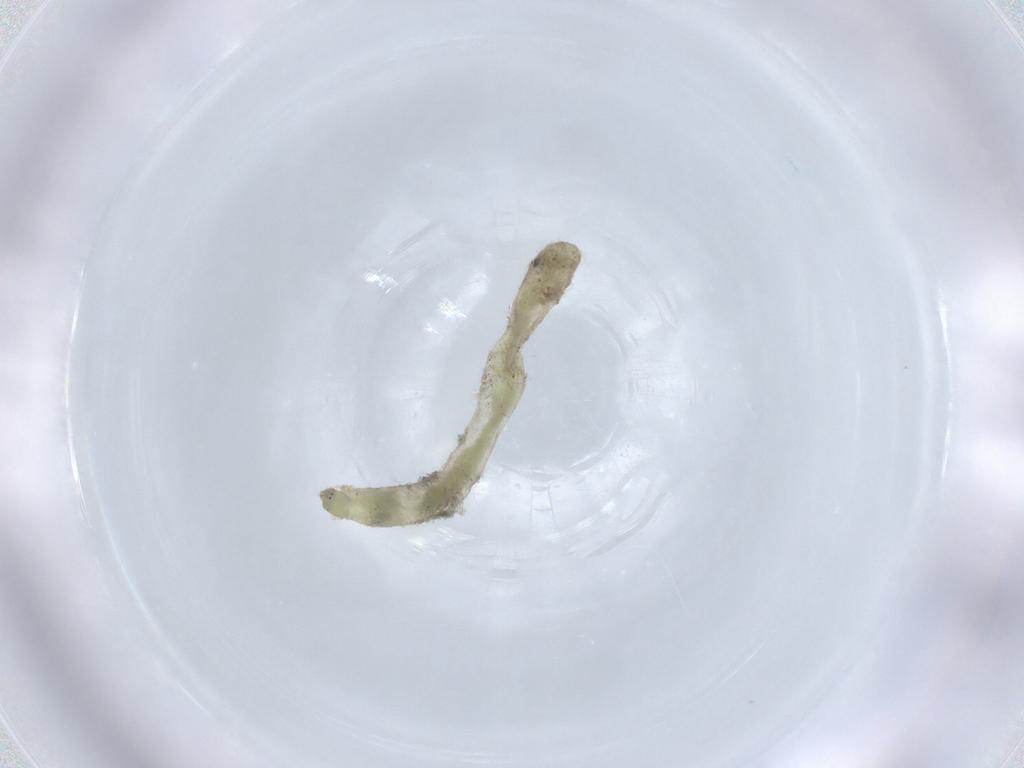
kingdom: Animalia
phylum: Arthropoda
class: Insecta
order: Diptera
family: Chironomidae
